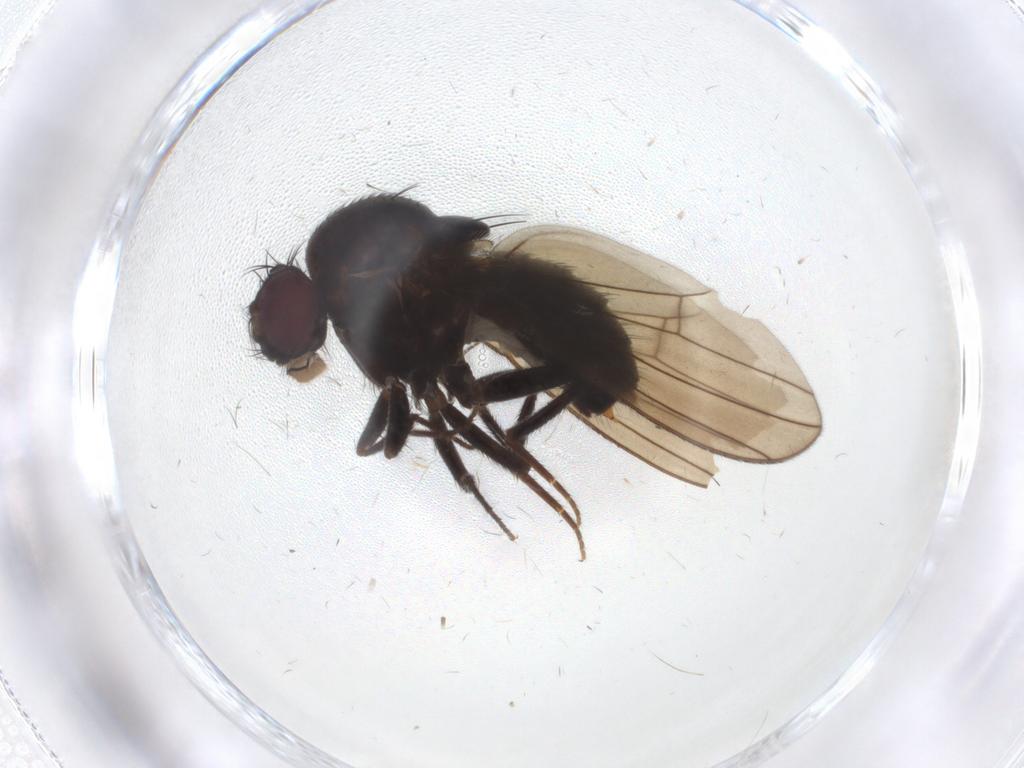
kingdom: Animalia
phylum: Arthropoda
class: Insecta
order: Diptera
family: Drosophilidae
